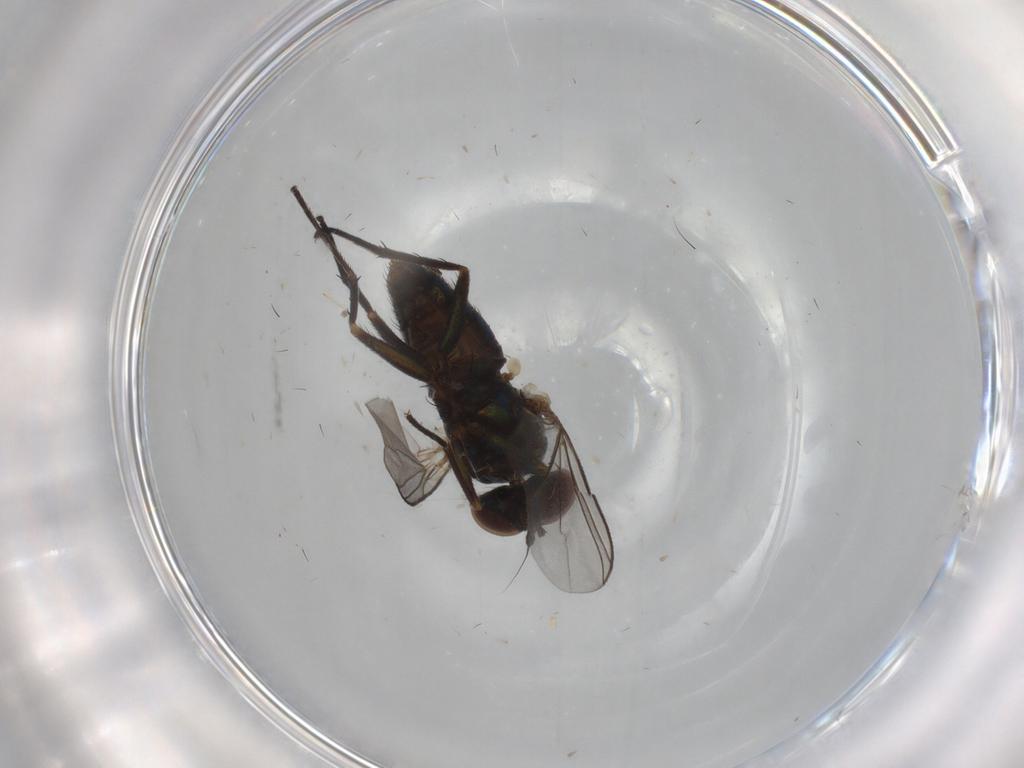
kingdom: Animalia
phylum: Arthropoda
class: Insecta
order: Diptera
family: Dolichopodidae
